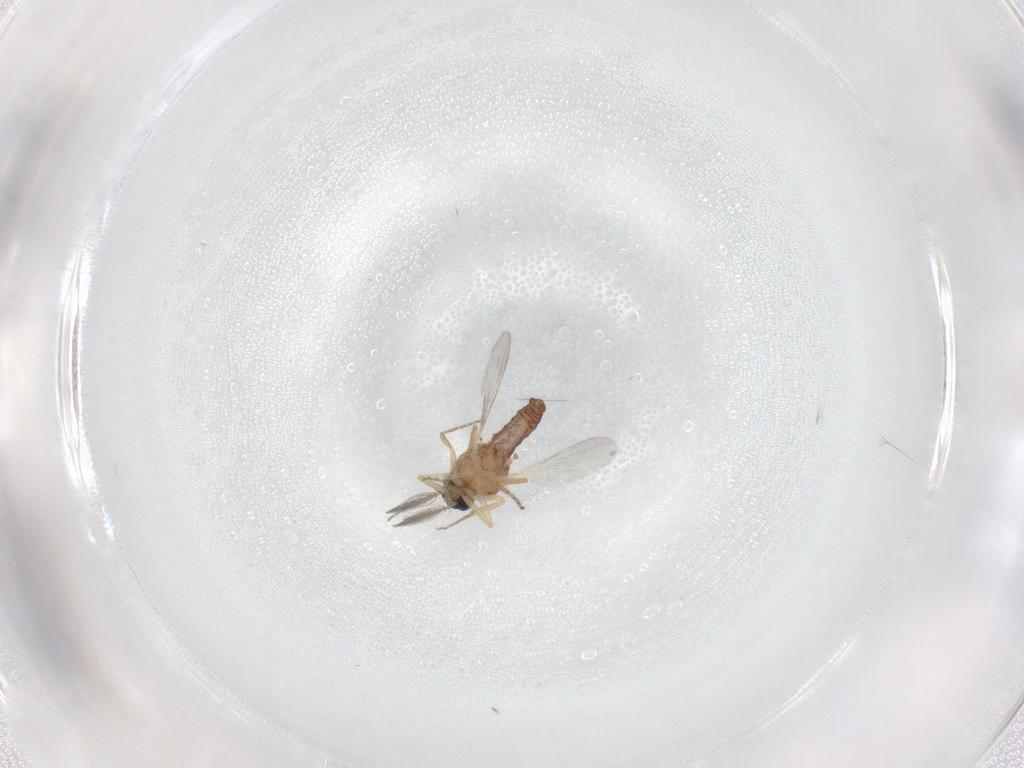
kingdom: Animalia
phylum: Arthropoda
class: Insecta
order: Diptera
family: Ceratopogonidae
